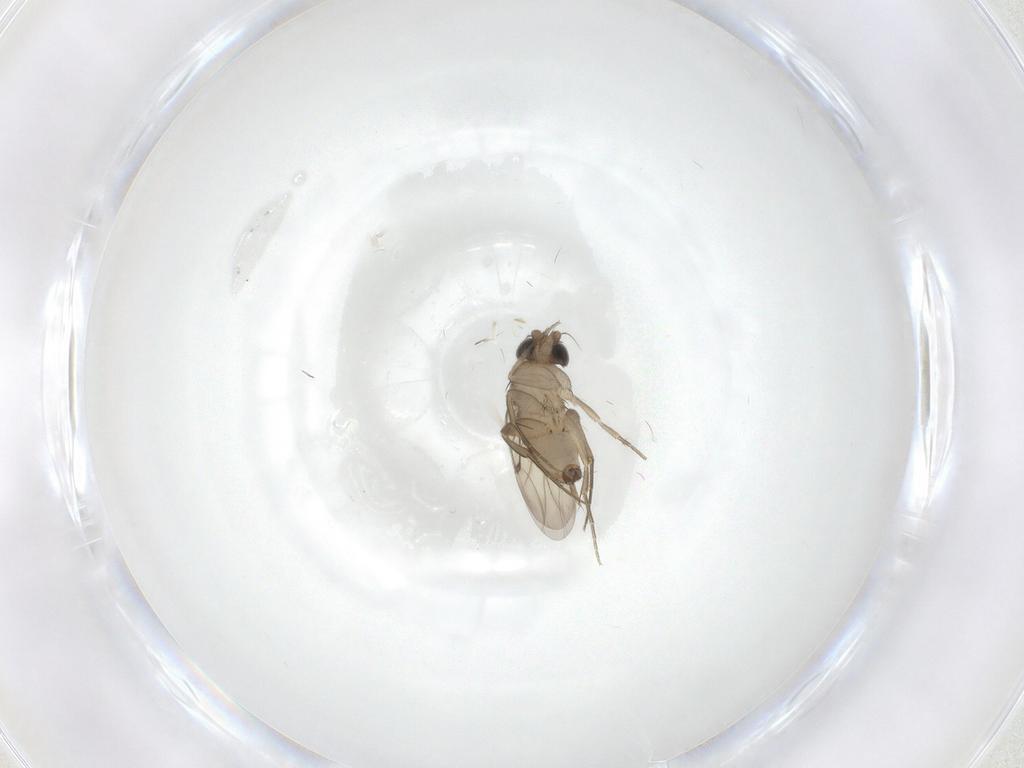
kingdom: Animalia
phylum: Arthropoda
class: Insecta
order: Diptera
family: Phoridae
